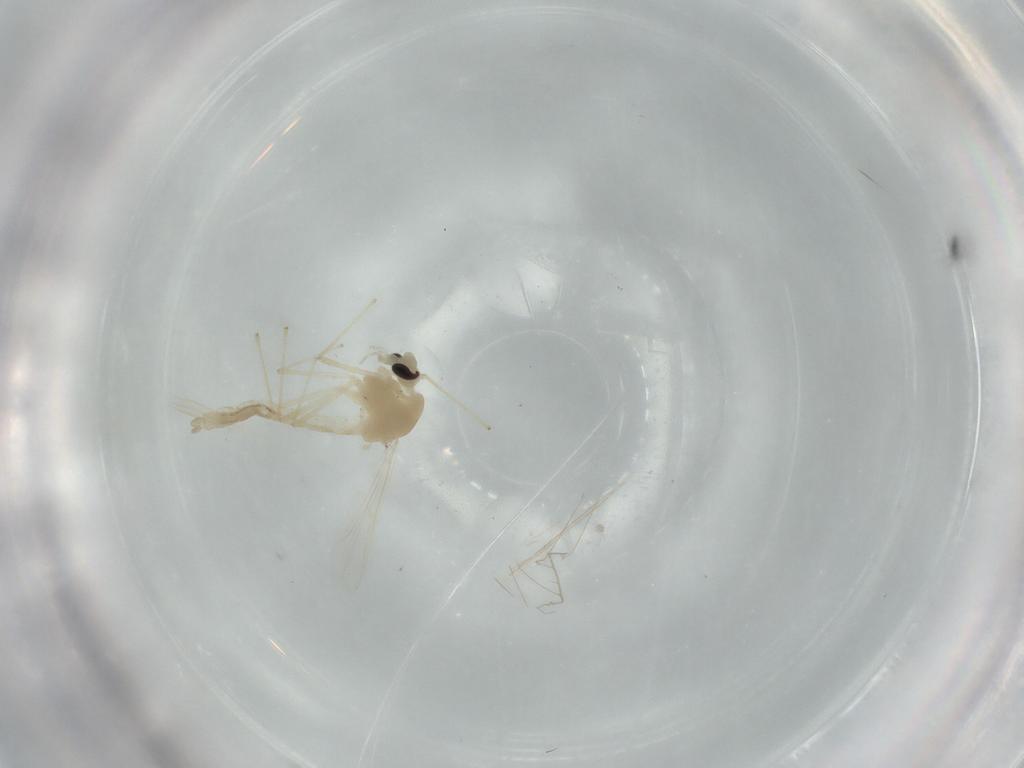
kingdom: Animalia
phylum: Arthropoda
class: Insecta
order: Diptera
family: Chironomidae
